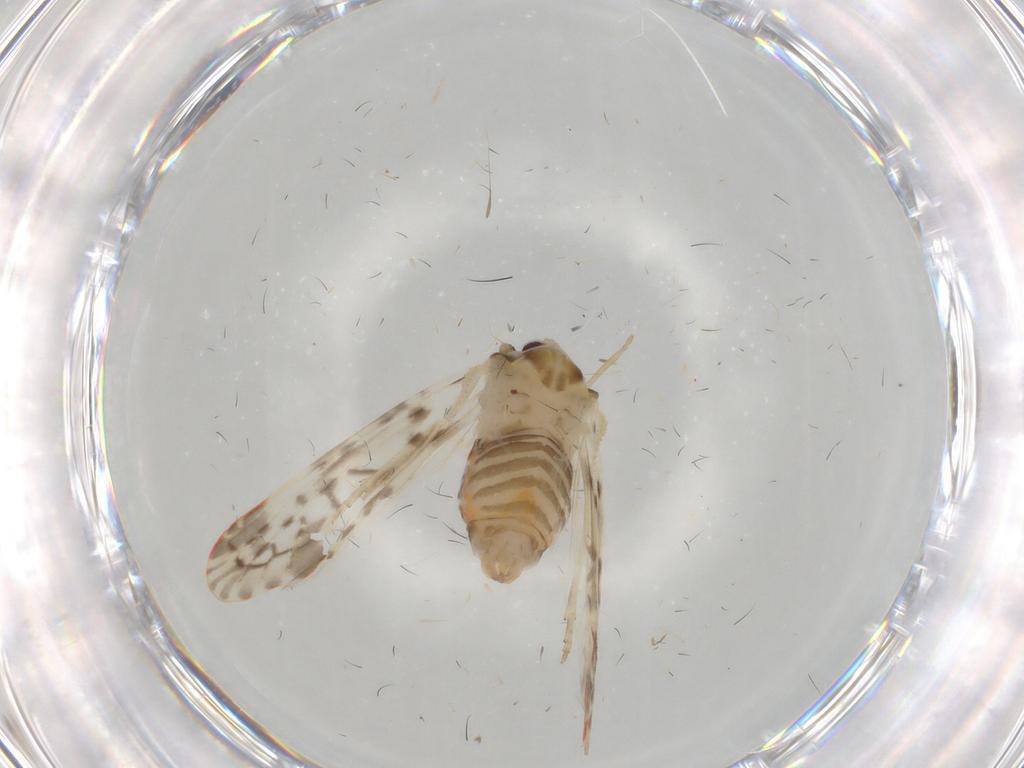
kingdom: Animalia
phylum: Arthropoda
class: Insecta
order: Hemiptera
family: Derbidae
